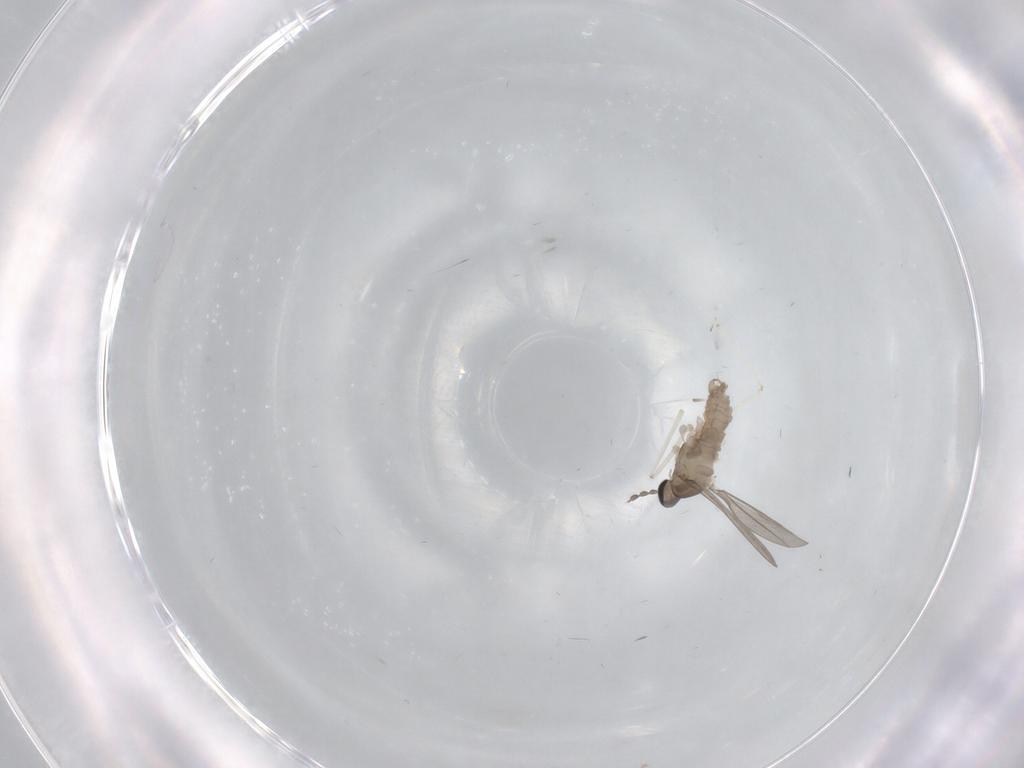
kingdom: Animalia
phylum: Arthropoda
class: Insecta
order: Diptera
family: Cecidomyiidae
